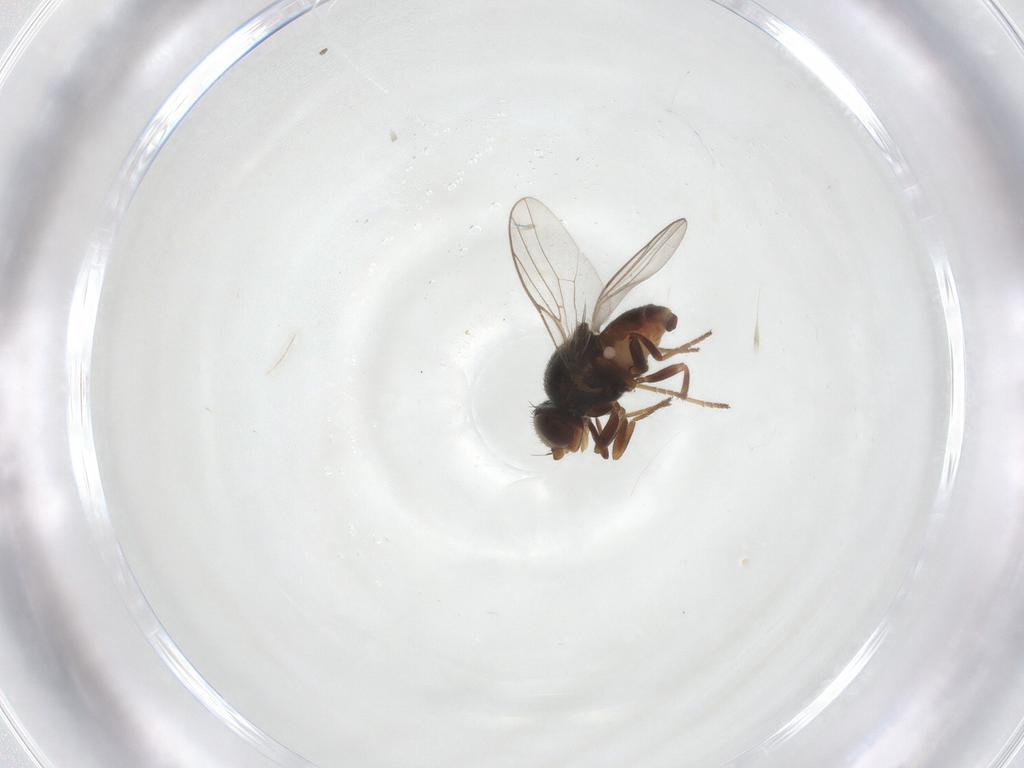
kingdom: Animalia
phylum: Arthropoda
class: Insecta
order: Diptera
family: Chloropidae
